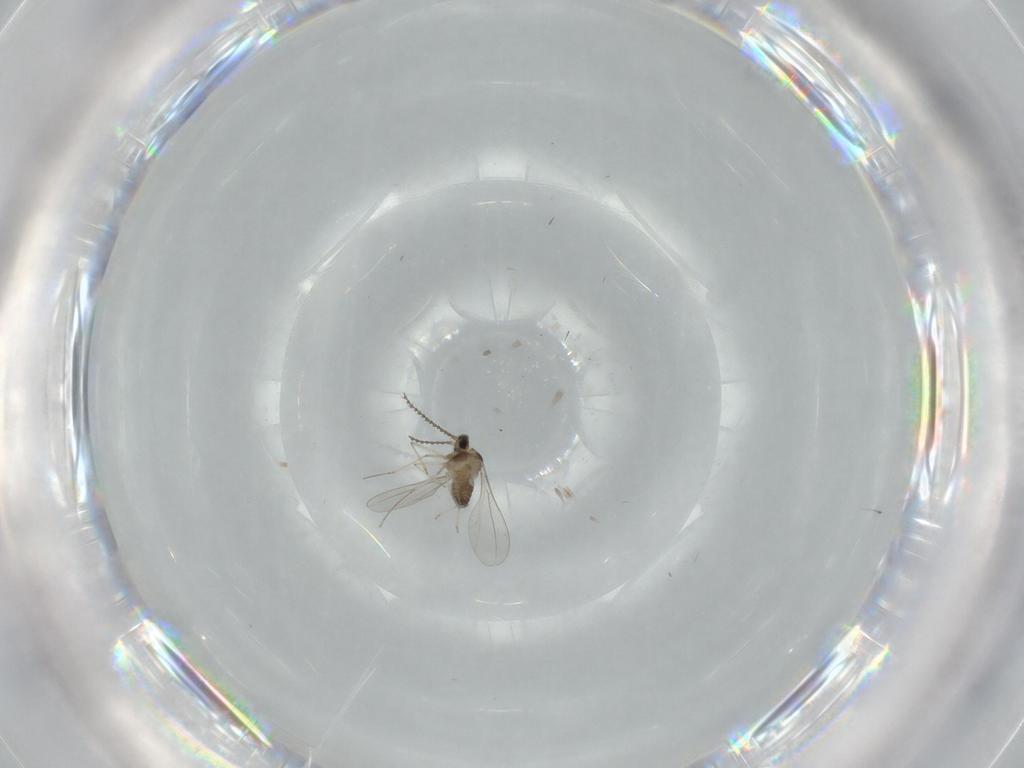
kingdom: Animalia
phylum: Arthropoda
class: Insecta
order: Diptera
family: Cecidomyiidae
